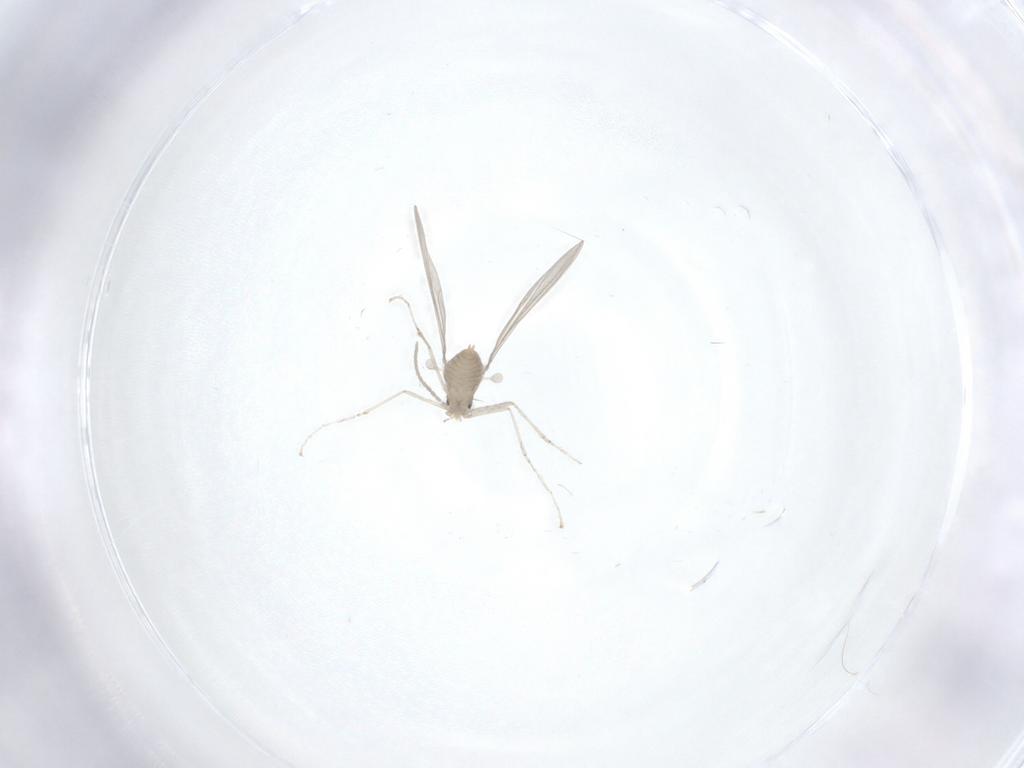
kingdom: Animalia
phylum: Arthropoda
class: Insecta
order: Diptera
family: Cecidomyiidae
